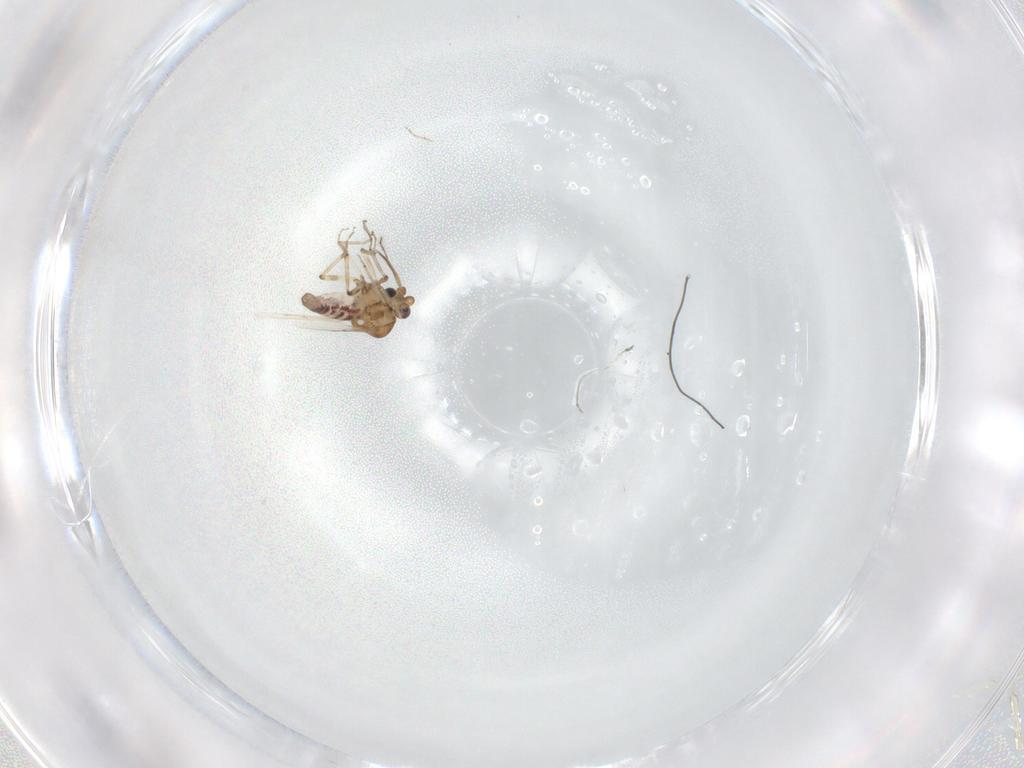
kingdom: Animalia
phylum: Arthropoda
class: Insecta
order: Diptera
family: Ceratopogonidae
